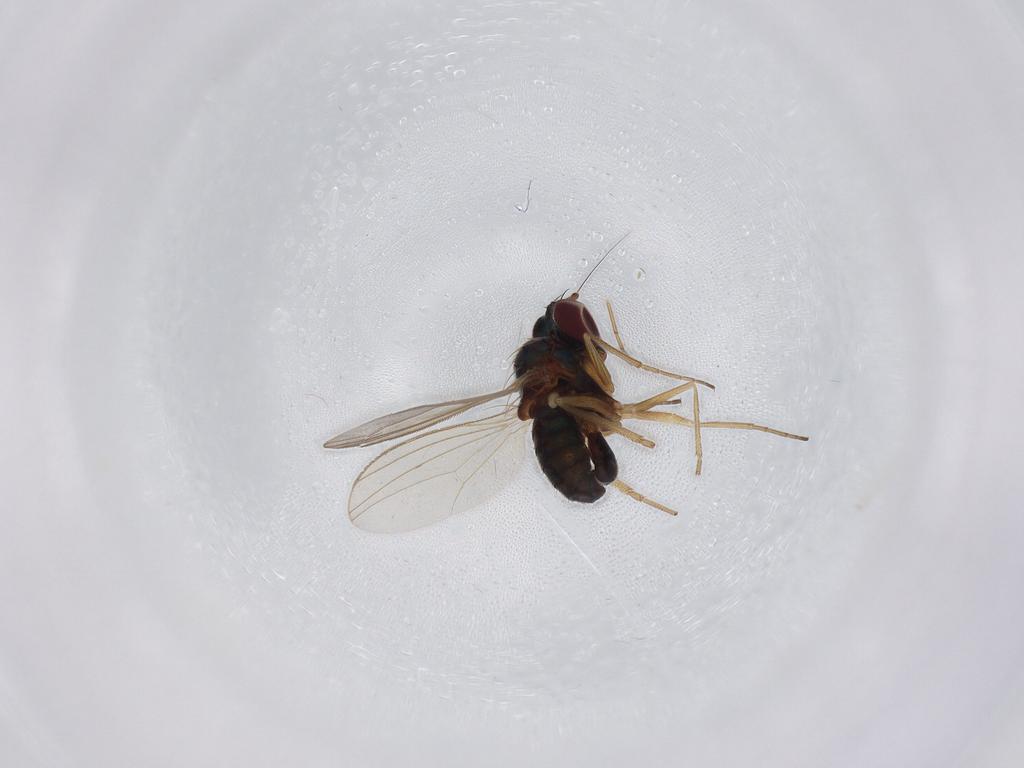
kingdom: Animalia
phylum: Arthropoda
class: Insecta
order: Diptera
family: Dolichopodidae
